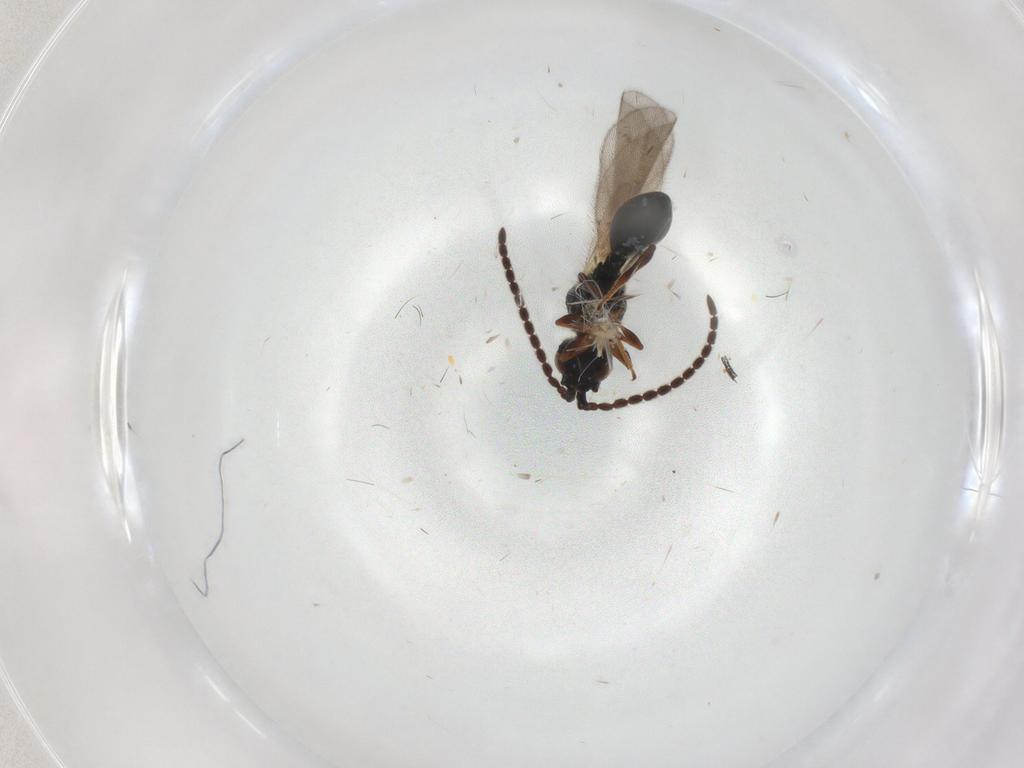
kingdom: Animalia
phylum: Arthropoda
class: Insecta
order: Hymenoptera
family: Diapriidae
